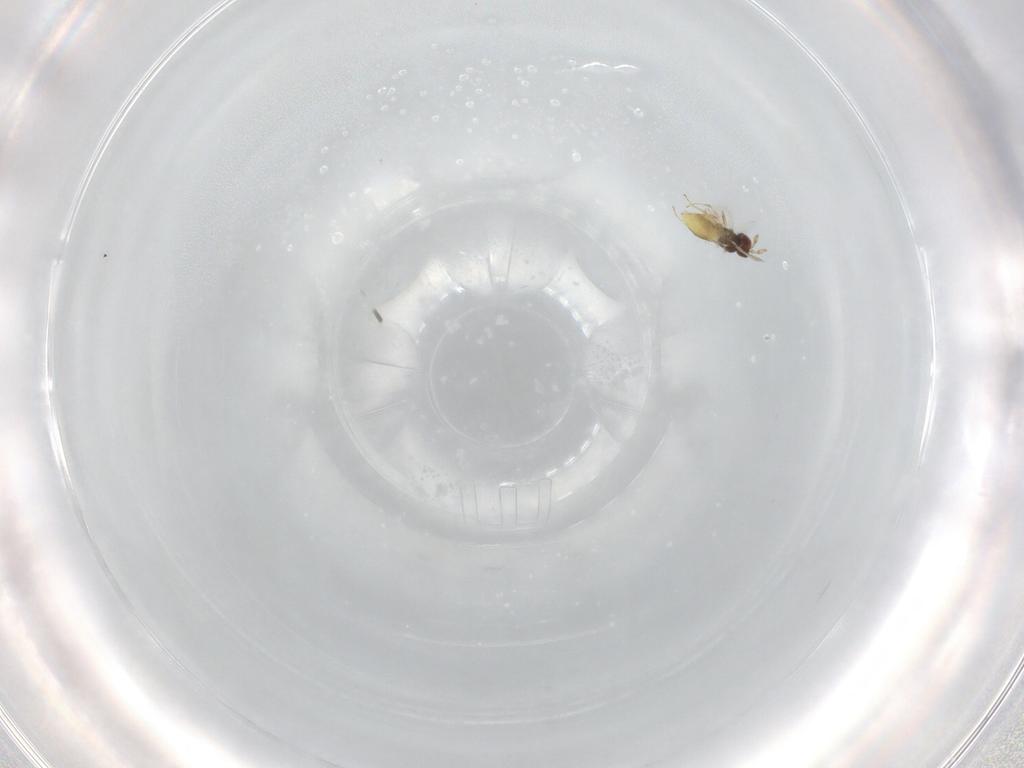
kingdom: Animalia
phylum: Arthropoda
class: Insecta
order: Hymenoptera
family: Trichogrammatidae
